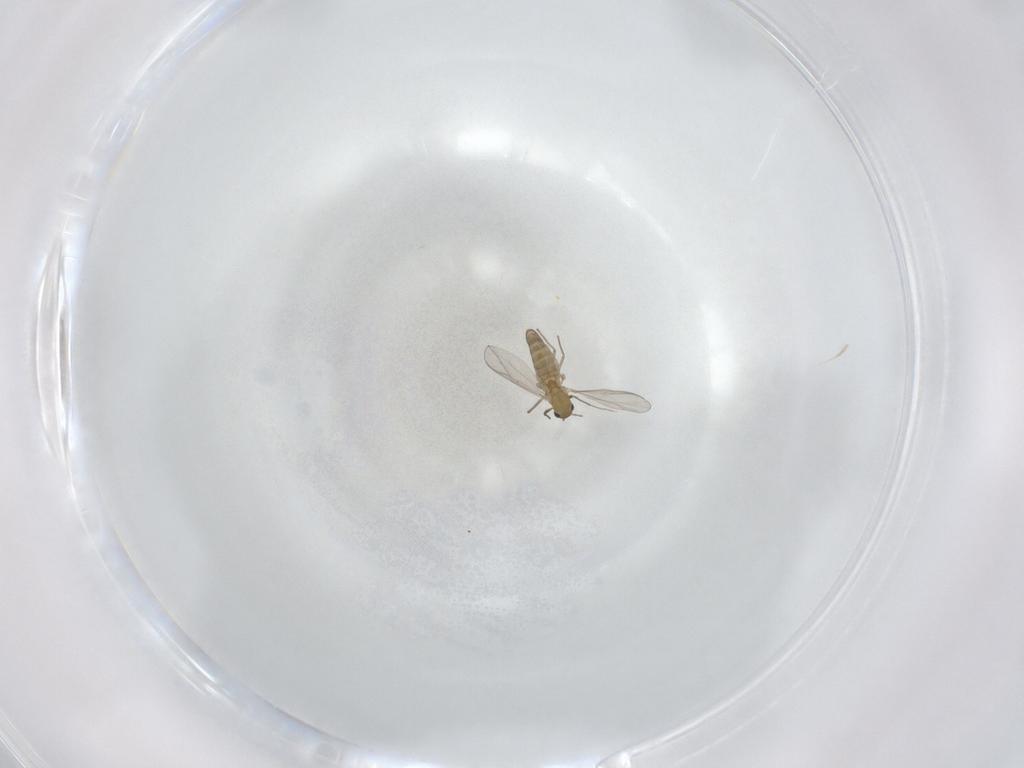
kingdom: Animalia
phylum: Arthropoda
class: Insecta
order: Diptera
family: Chironomidae
